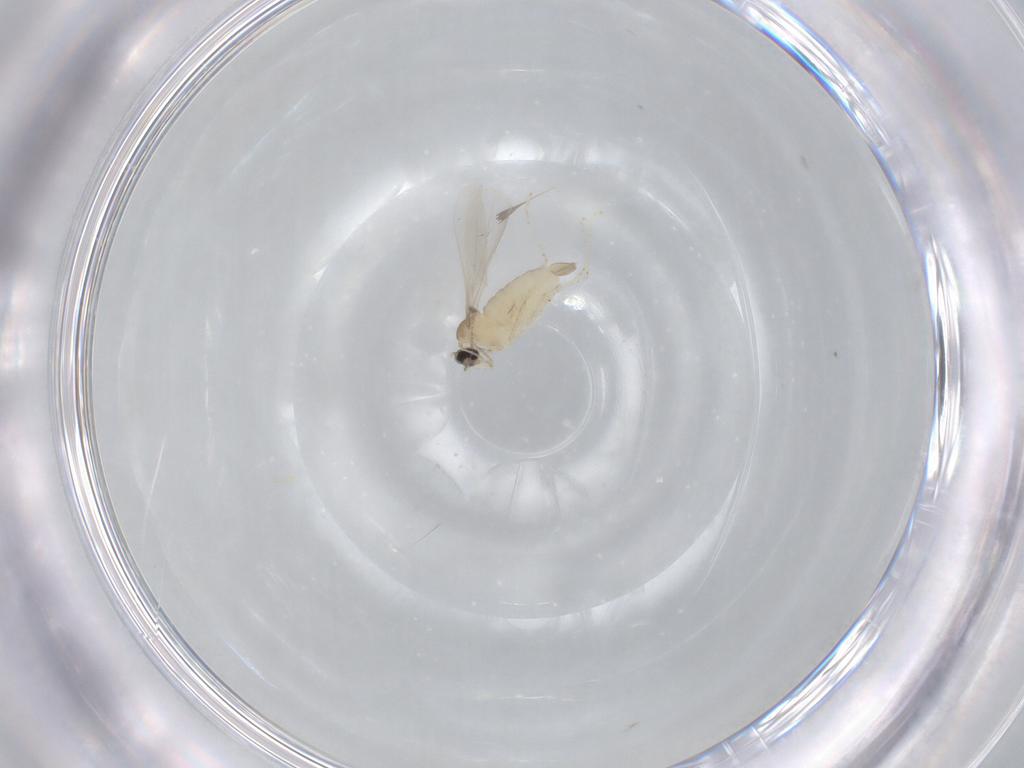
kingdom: Animalia
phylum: Arthropoda
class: Insecta
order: Diptera
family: Cecidomyiidae
